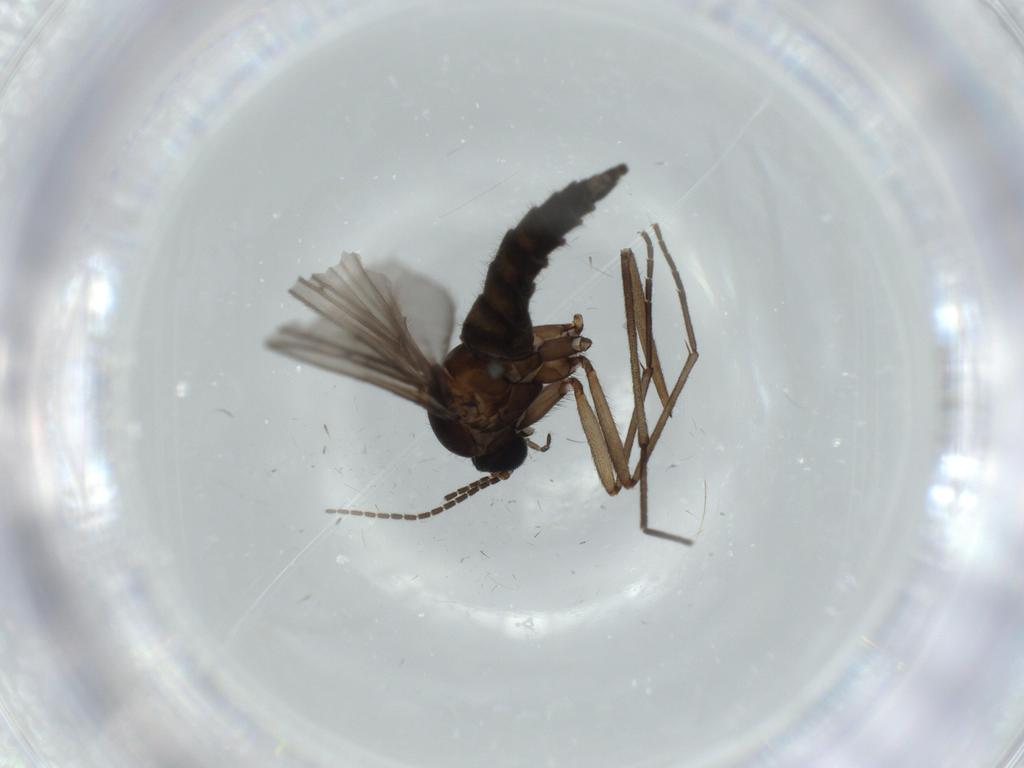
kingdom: Animalia
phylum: Arthropoda
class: Insecta
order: Diptera
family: Sciaridae
